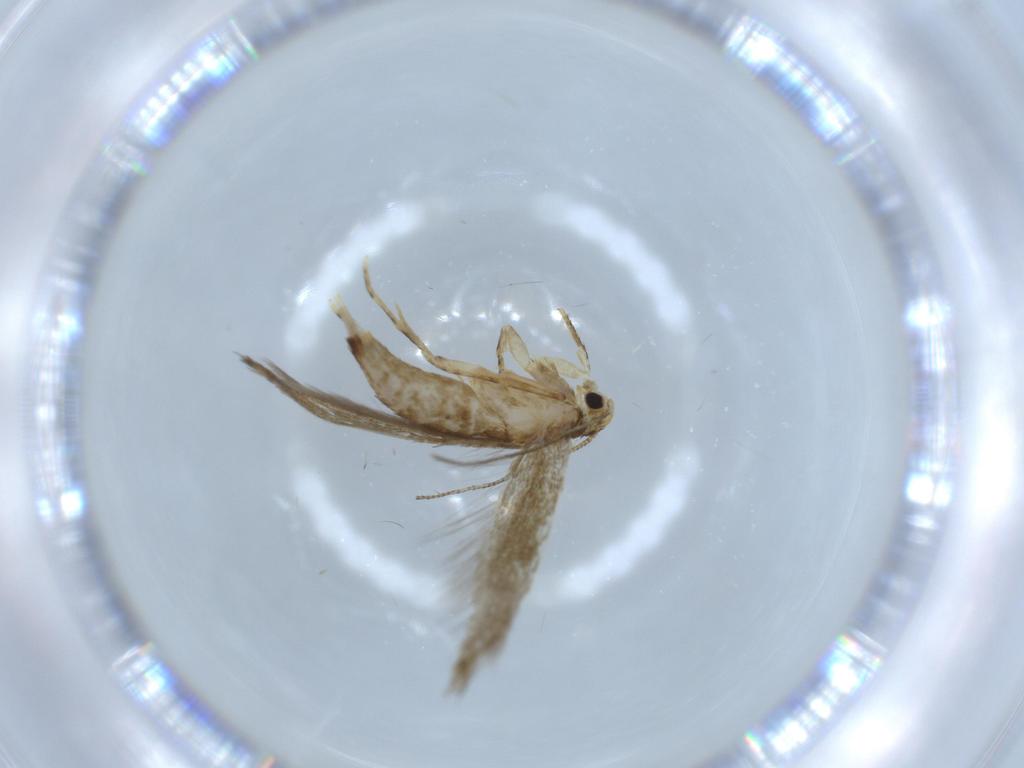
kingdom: Animalia
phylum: Arthropoda
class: Insecta
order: Lepidoptera
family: Tineidae
